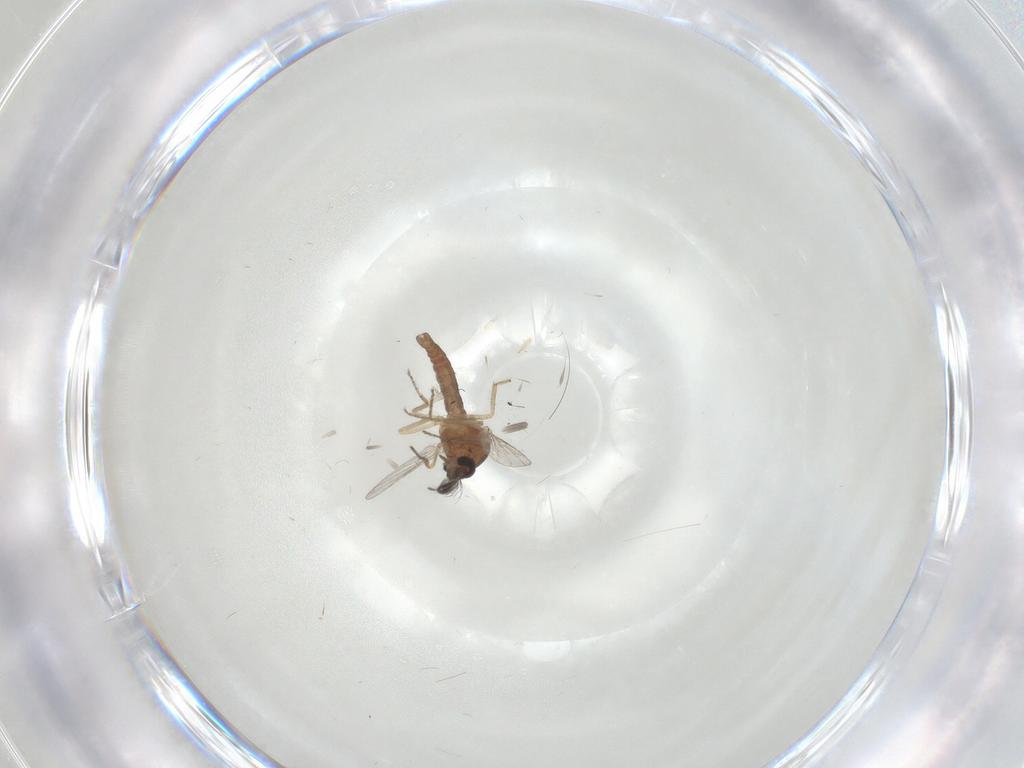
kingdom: Animalia
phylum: Arthropoda
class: Insecta
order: Diptera
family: Ceratopogonidae
